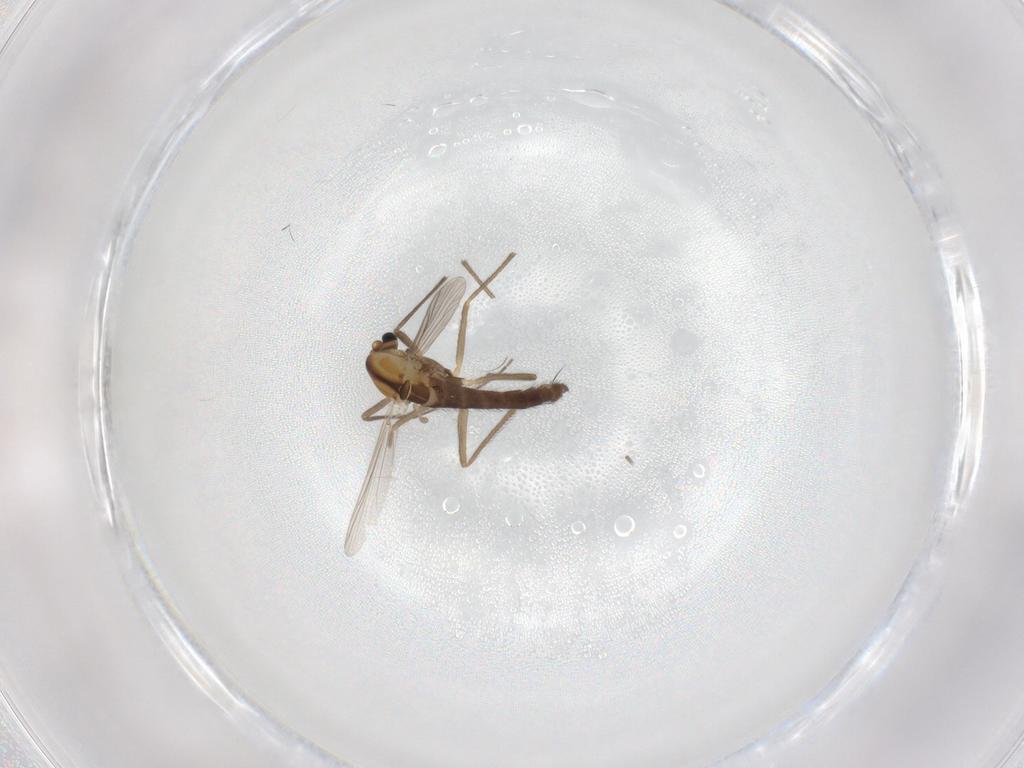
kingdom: Animalia
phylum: Arthropoda
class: Insecta
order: Diptera
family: Chironomidae
